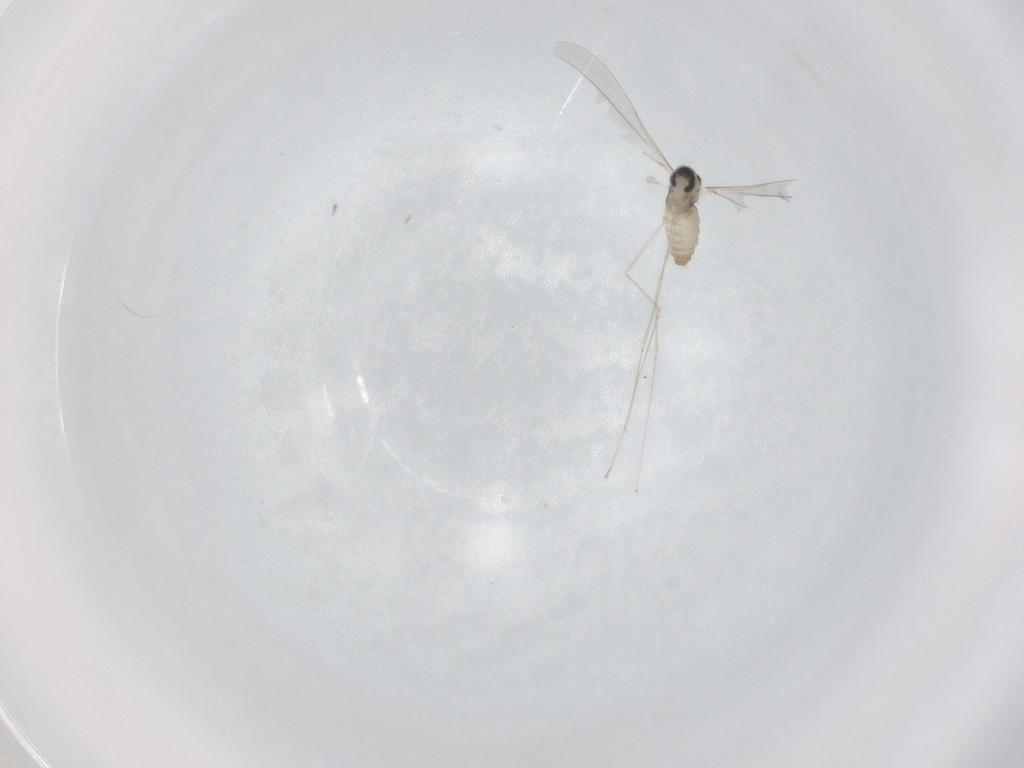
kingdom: Animalia
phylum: Arthropoda
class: Insecta
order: Diptera
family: Cecidomyiidae
